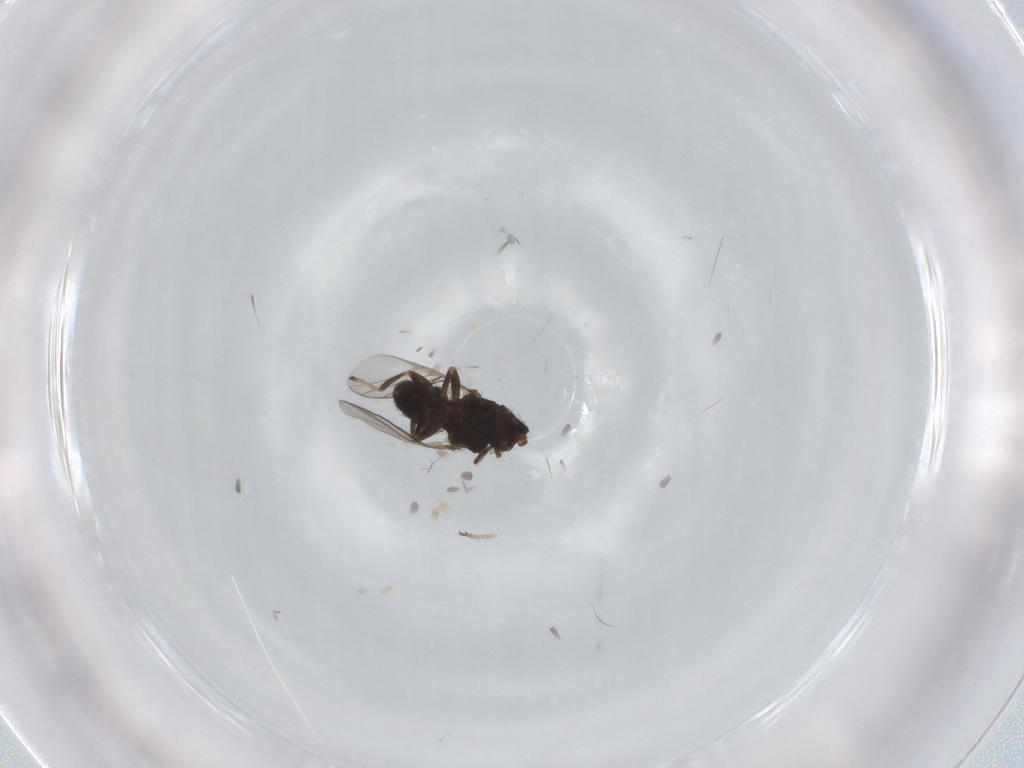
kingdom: Animalia
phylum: Arthropoda
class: Insecta
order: Diptera
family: Chloropidae
